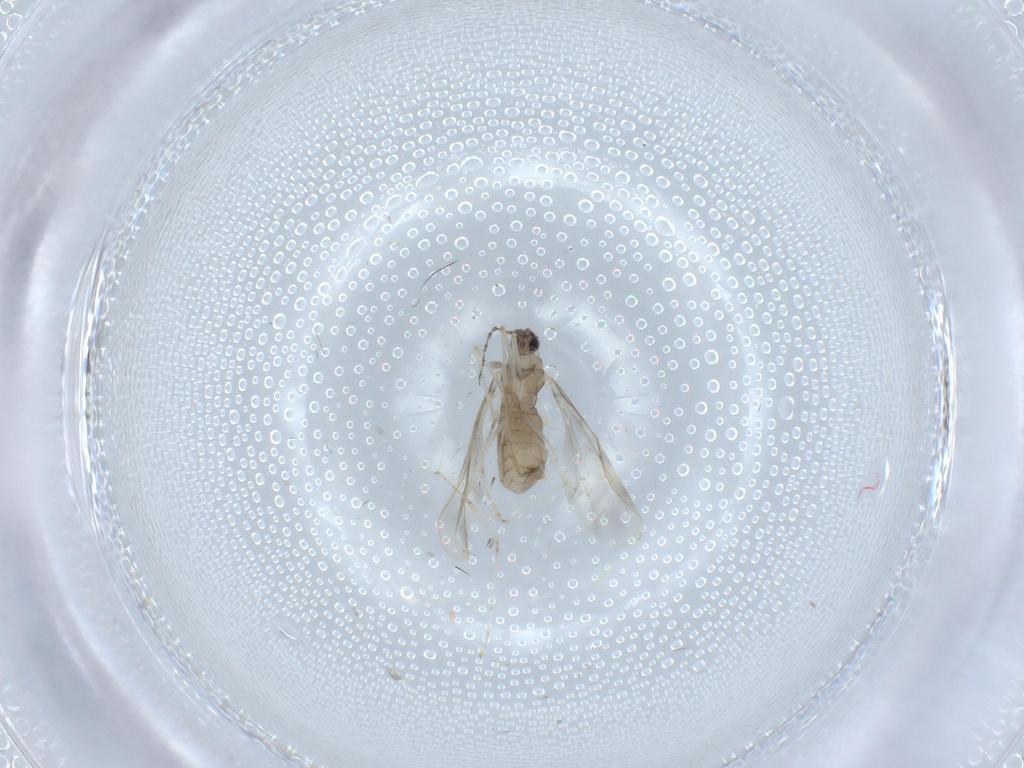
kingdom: Animalia
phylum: Arthropoda
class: Insecta
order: Diptera
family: Cecidomyiidae
